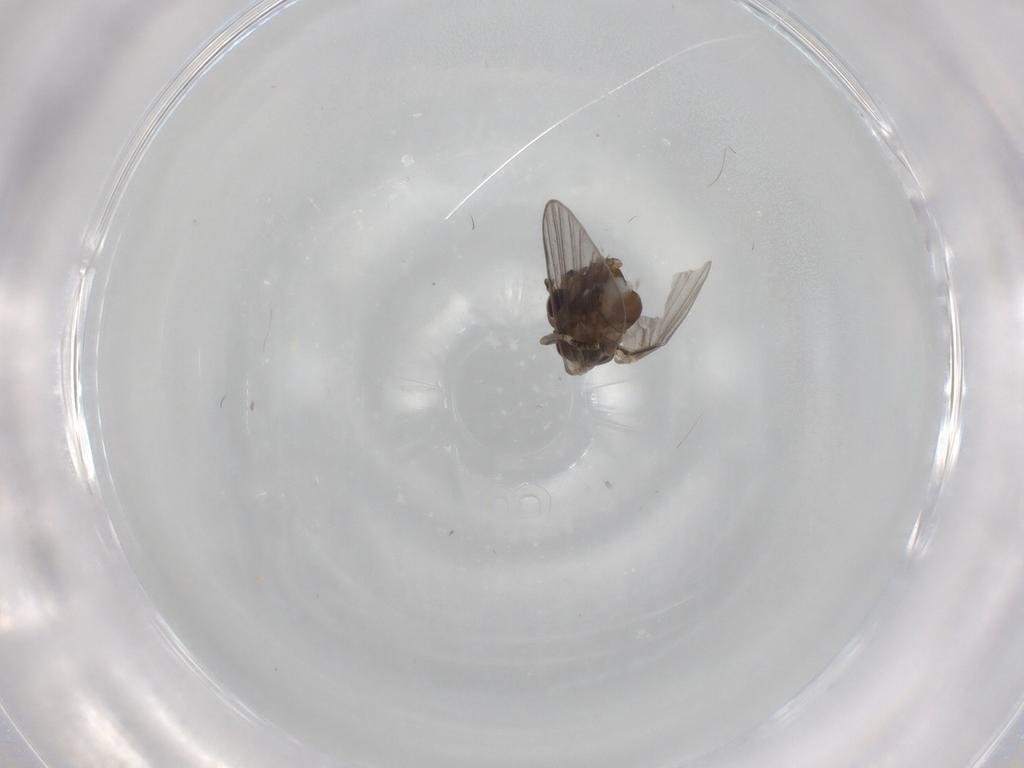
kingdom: Animalia
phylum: Arthropoda
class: Insecta
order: Diptera
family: Psychodidae
